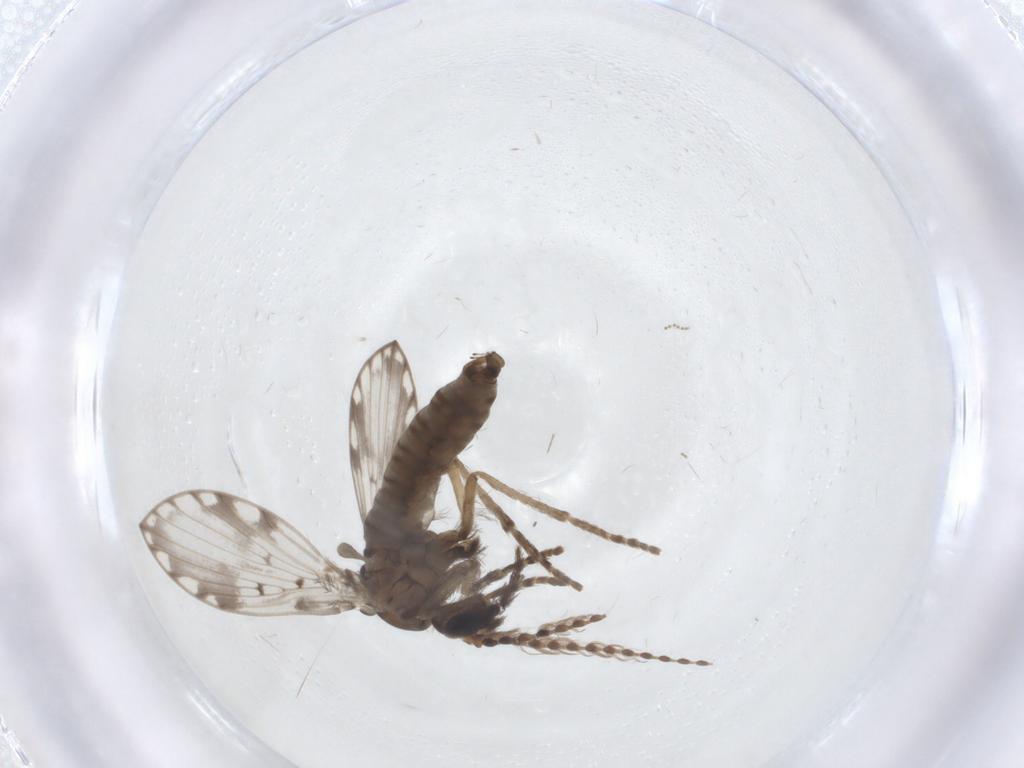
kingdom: Animalia
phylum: Arthropoda
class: Insecta
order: Diptera
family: Psychodidae
